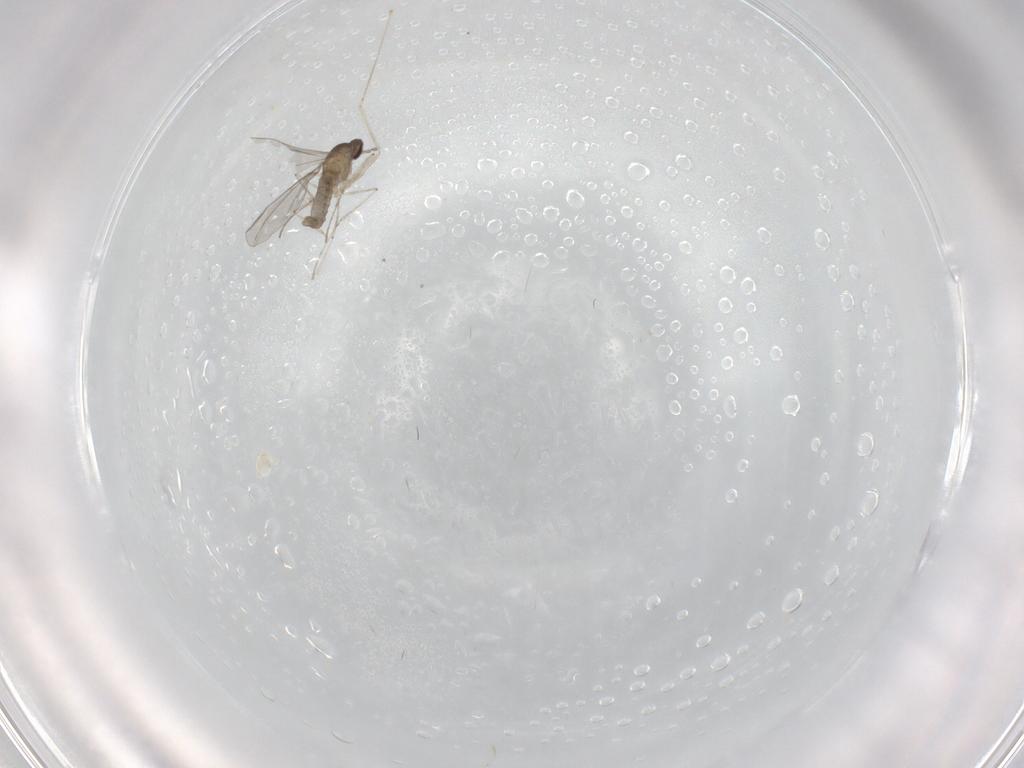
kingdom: Animalia
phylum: Arthropoda
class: Insecta
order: Diptera
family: Cecidomyiidae
